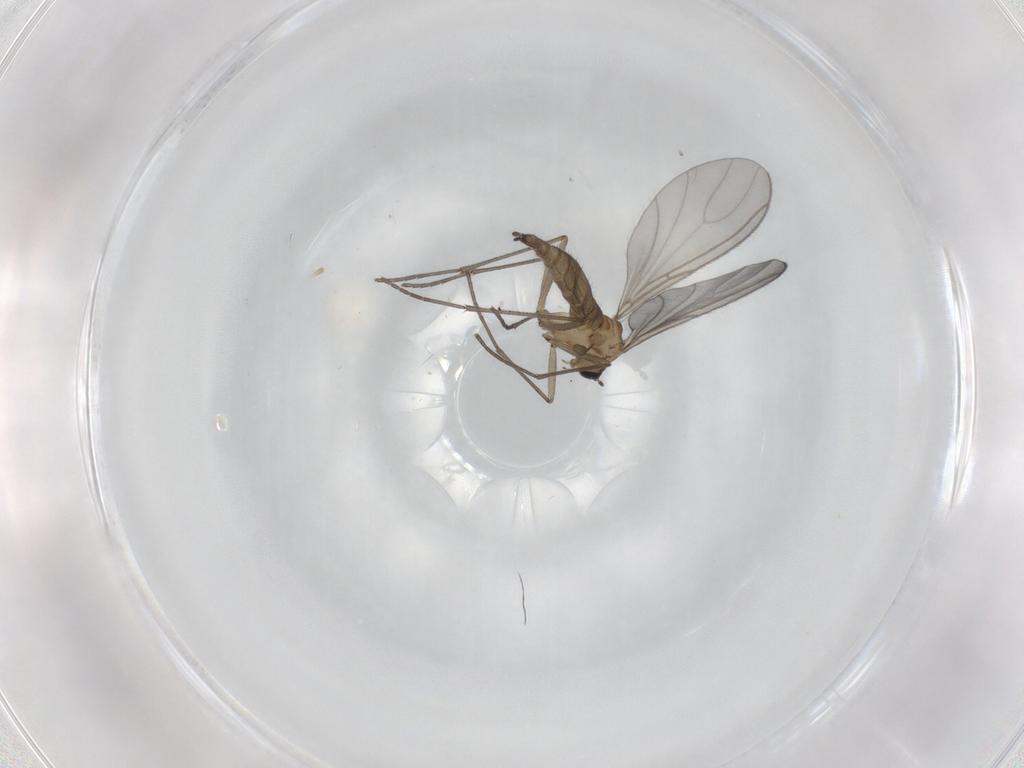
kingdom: Animalia
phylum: Arthropoda
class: Insecta
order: Diptera
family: Sciaridae
